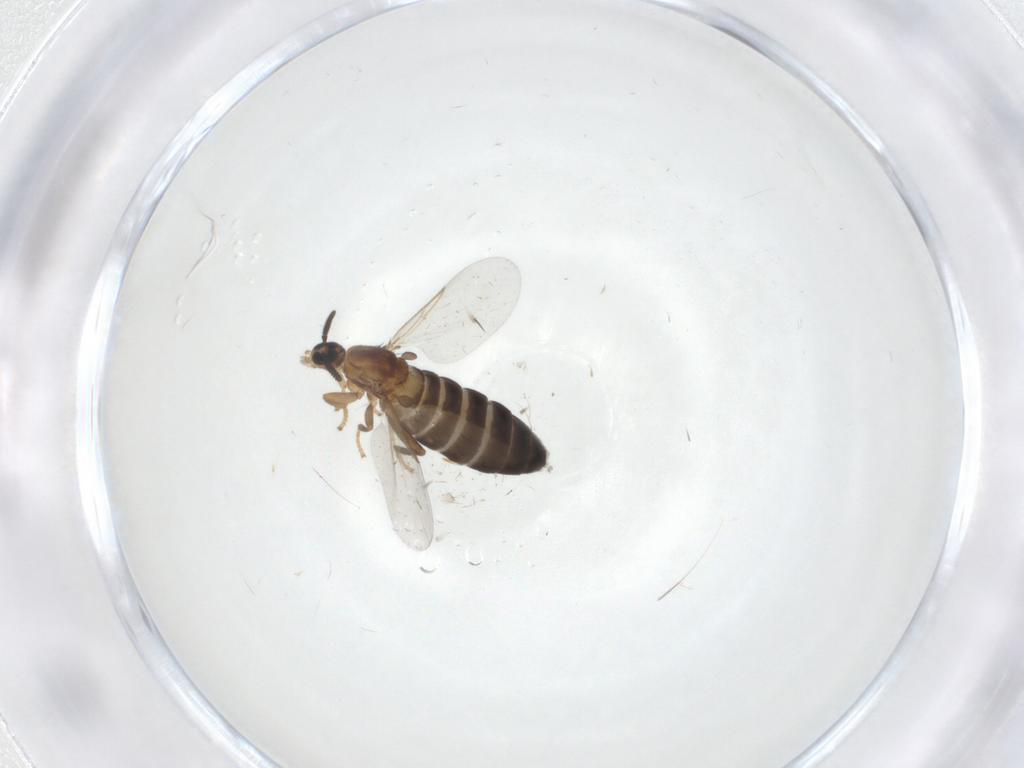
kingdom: Animalia
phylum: Arthropoda
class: Insecta
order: Diptera
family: Scatopsidae
